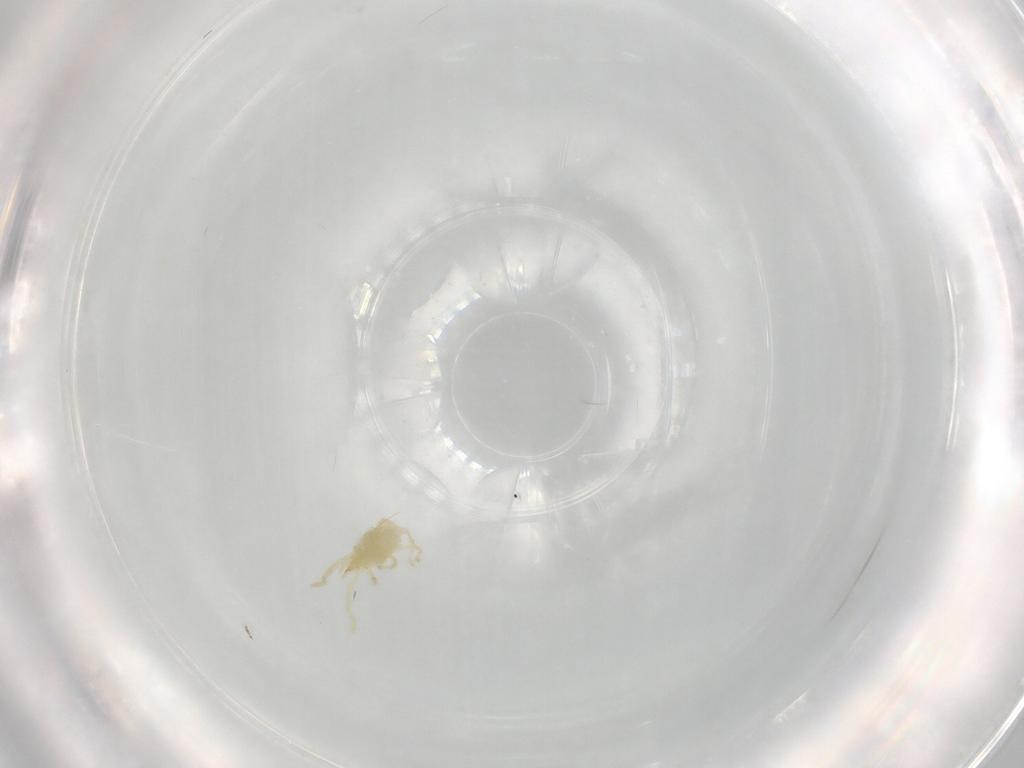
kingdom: Animalia
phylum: Arthropoda
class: Arachnida
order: Trombidiformes
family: Erythraeidae
